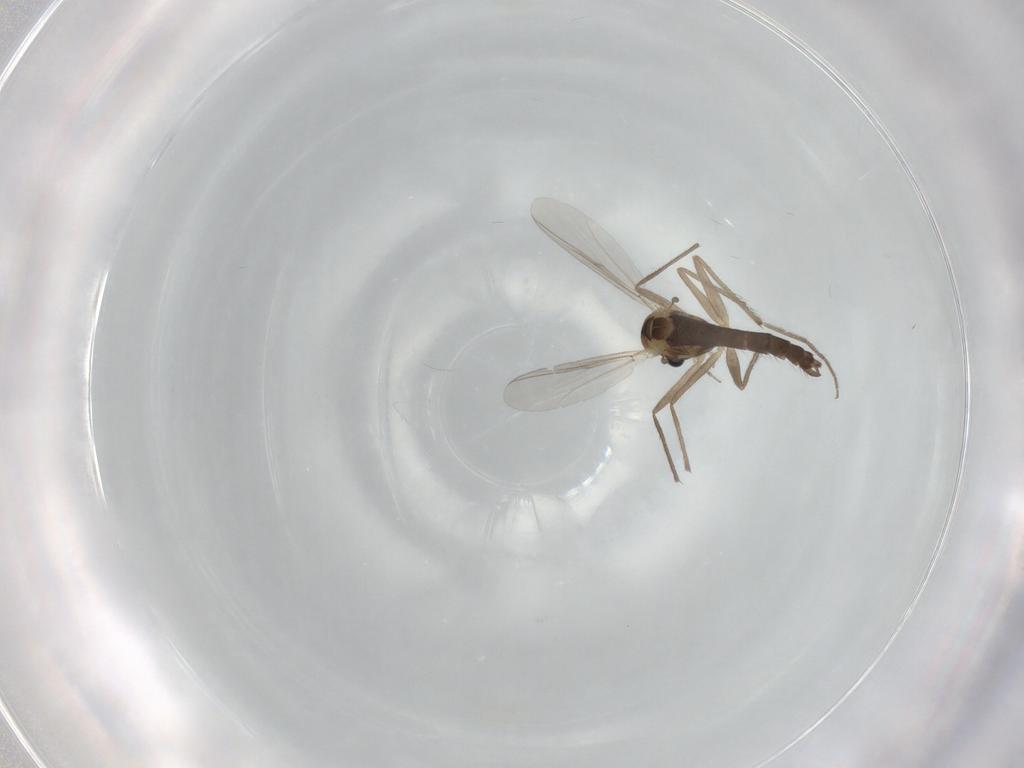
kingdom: Animalia
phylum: Arthropoda
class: Insecta
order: Diptera
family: Chironomidae
